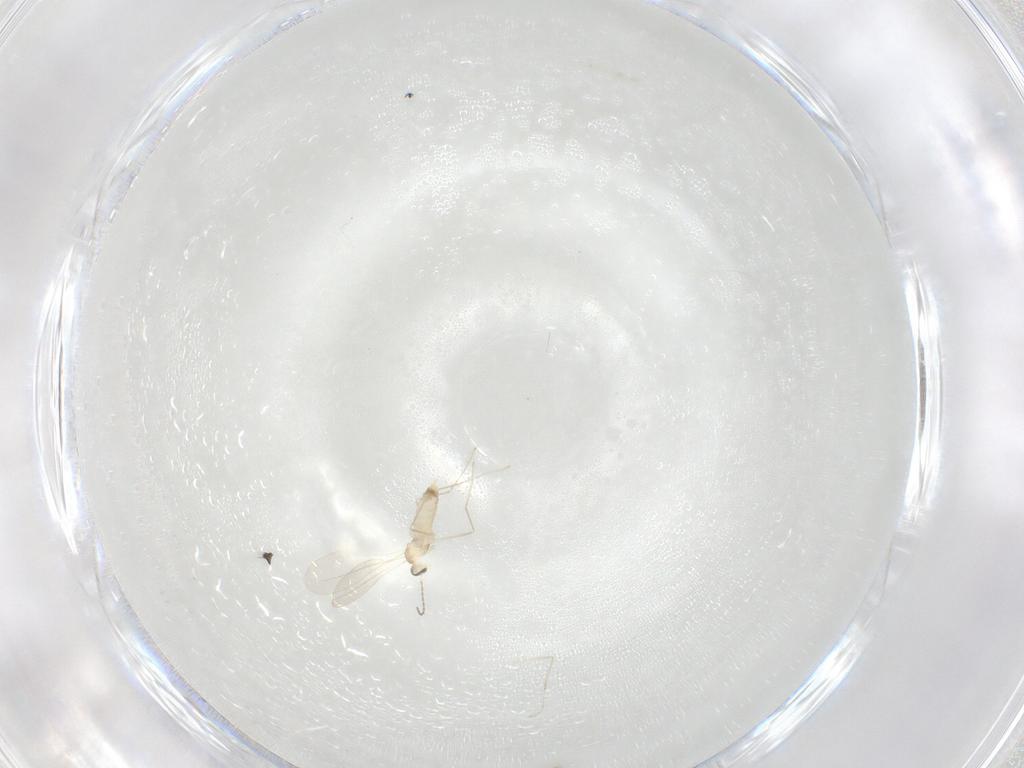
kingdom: Animalia
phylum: Arthropoda
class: Insecta
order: Diptera
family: Cecidomyiidae
